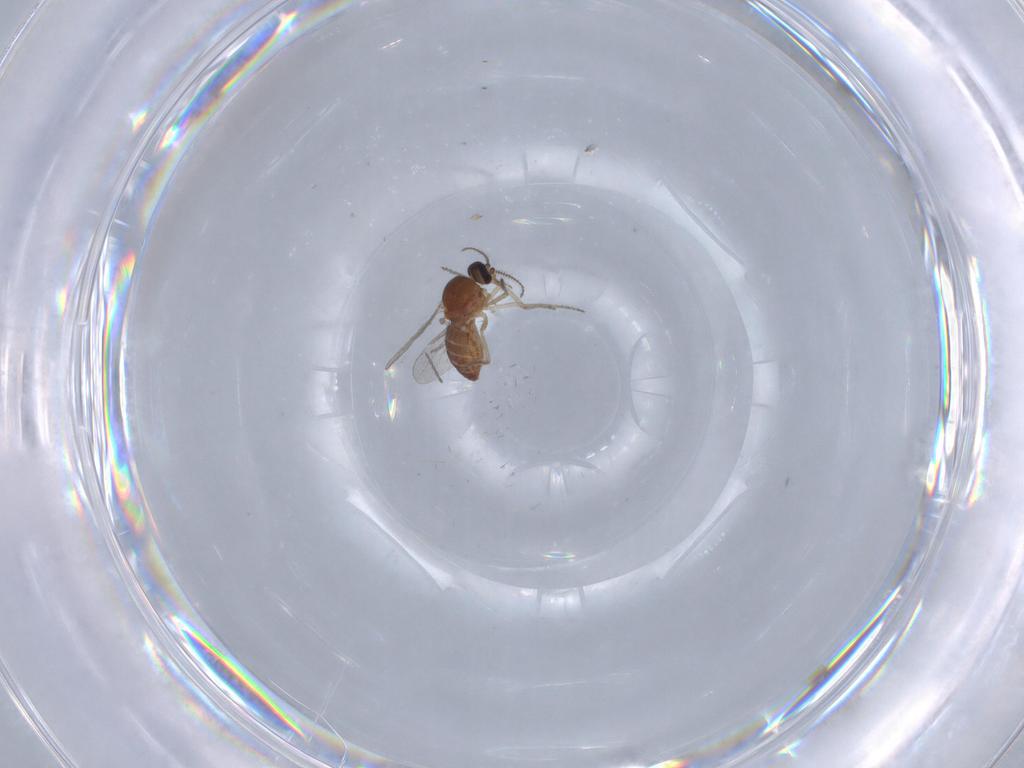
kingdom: Animalia
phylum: Arthropoda
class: Insecta
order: Diptera
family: Ceratopogonidae
